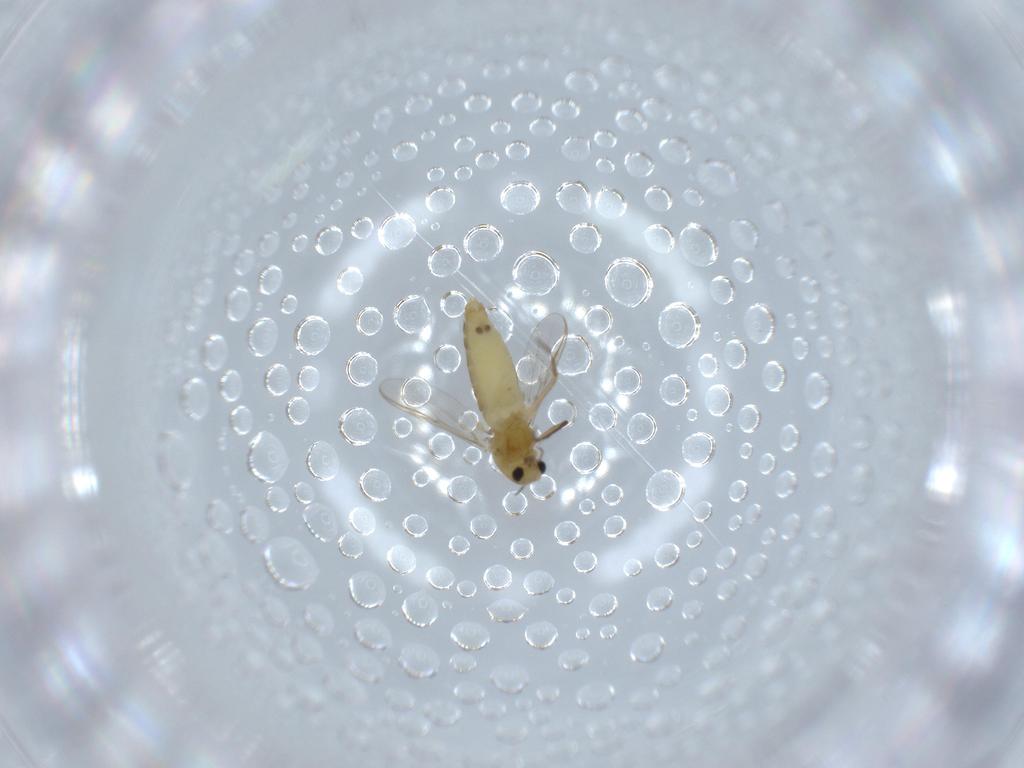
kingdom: Animalia
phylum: Arthropoda
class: Insecta
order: Diptera
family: Chironomidae
